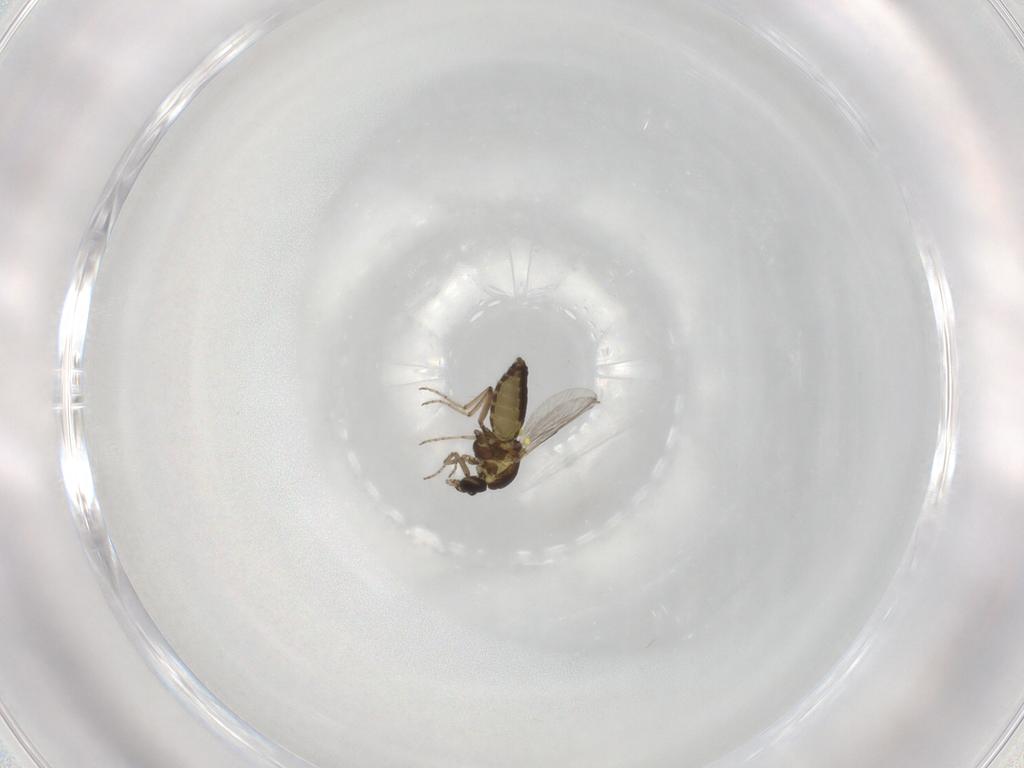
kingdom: Animalia
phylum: Arthropoda
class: Insecta
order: Diptera
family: Ceratopogonidae
